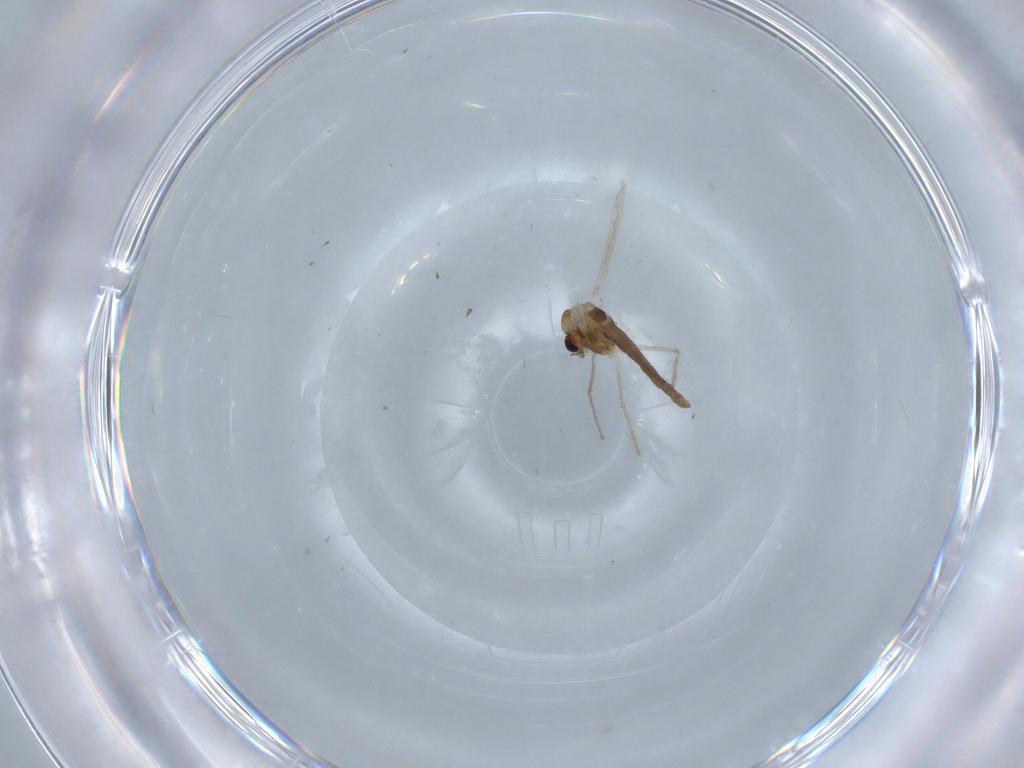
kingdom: Animalia
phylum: Arthropoda
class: Insecta
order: Diptera
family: Chironomidae
